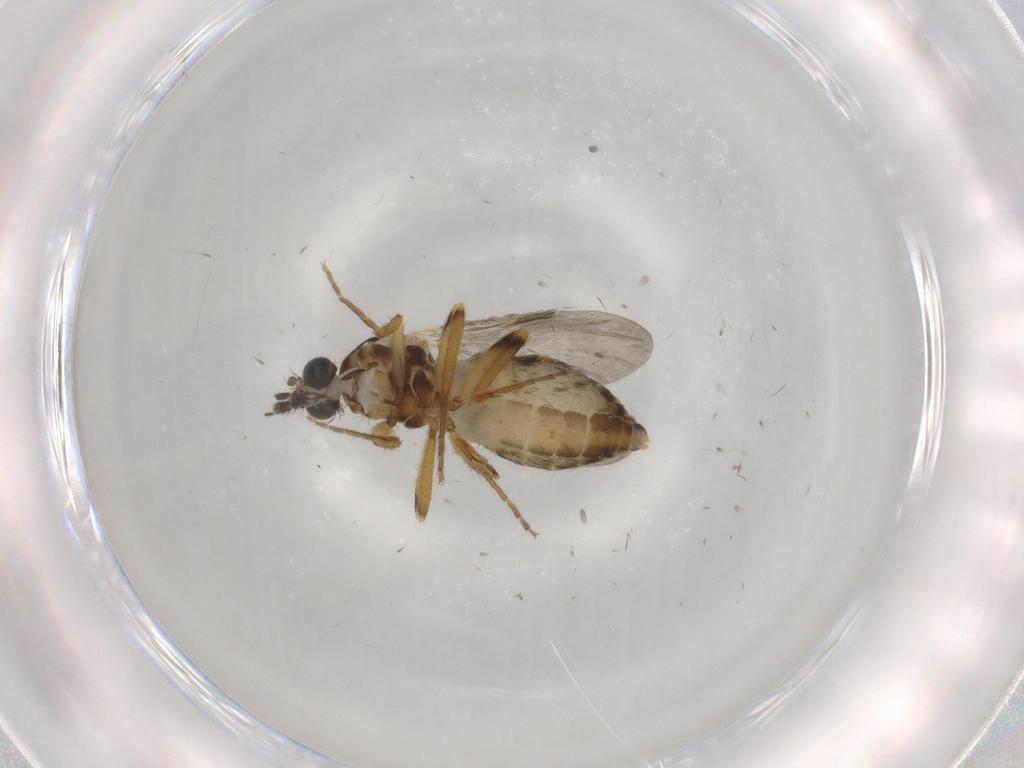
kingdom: Animalia
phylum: Arthropoda
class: Insecta
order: Diptera
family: Ceratopogonidae
